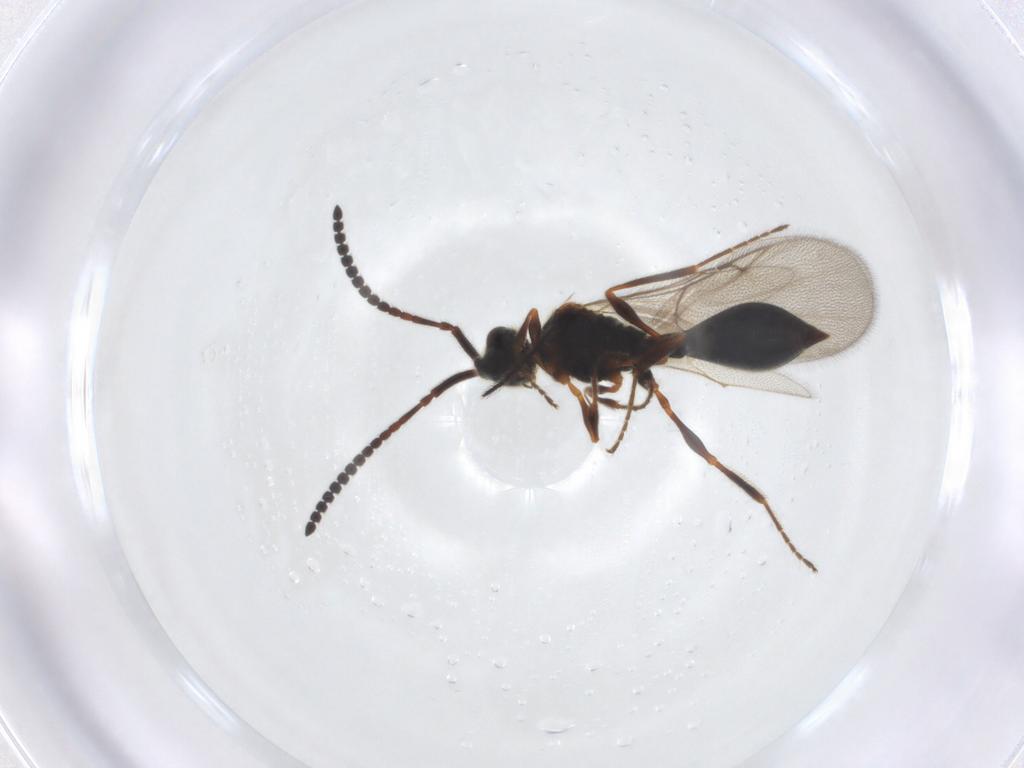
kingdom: Animalia
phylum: Arthropoda
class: Insecta
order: Hymenoptera
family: Diapriidae
